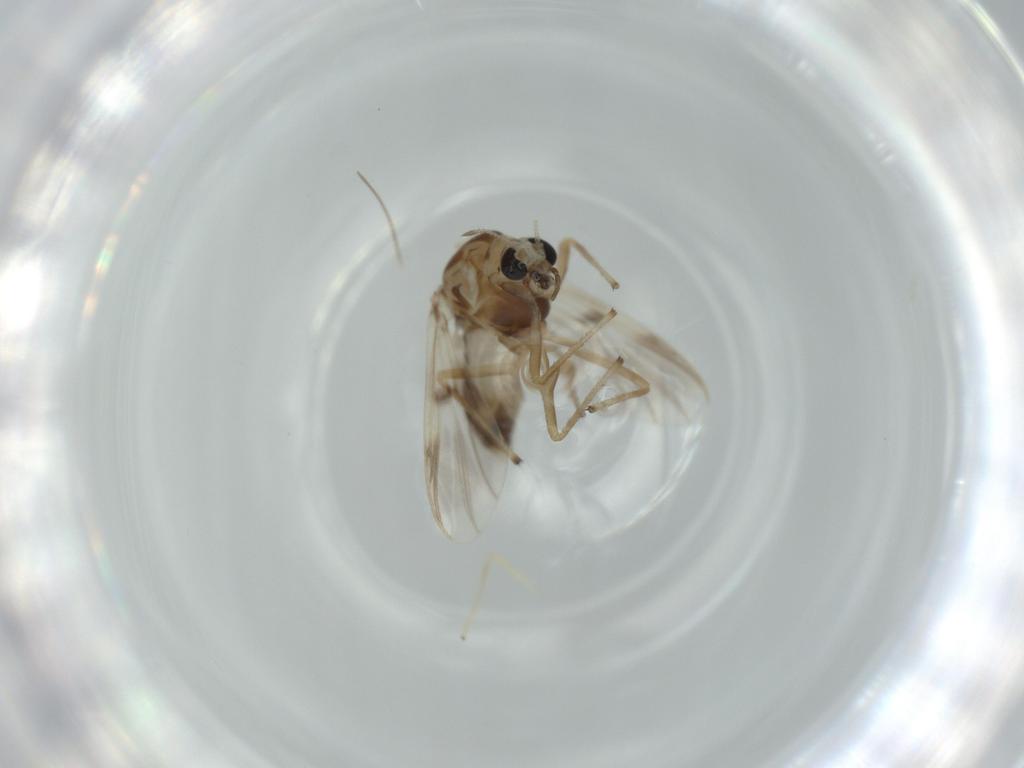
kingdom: Animalia
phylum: Arthropoda
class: Insecta
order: Diptera
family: Chironomidae
